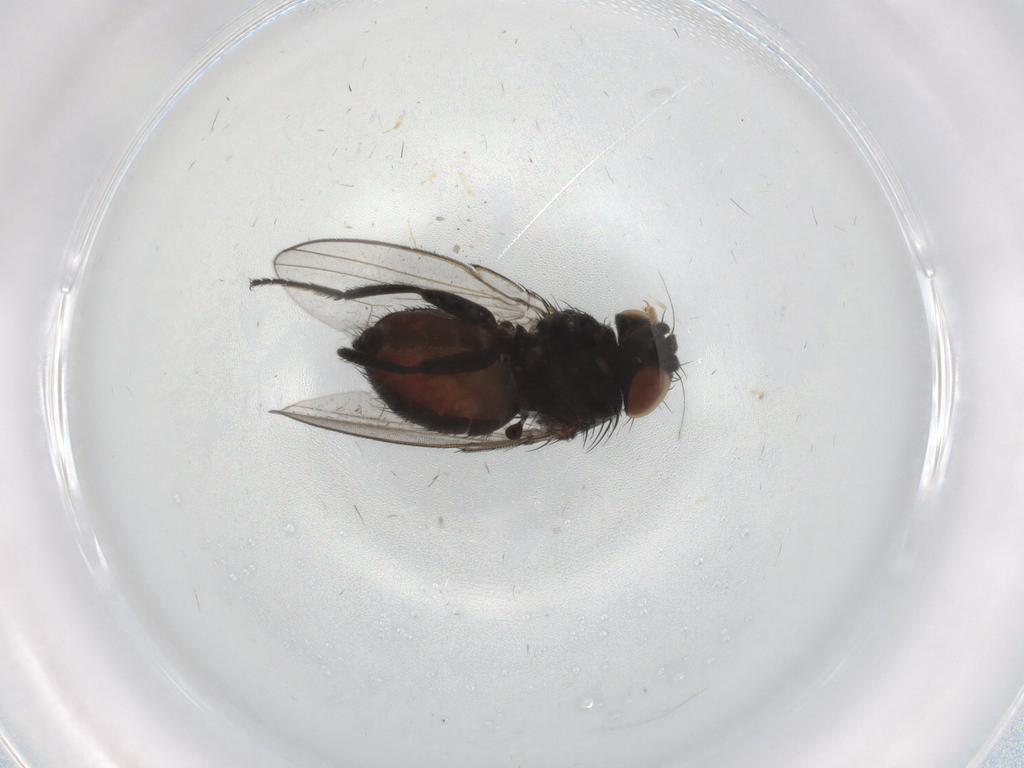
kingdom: Animalia
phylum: Arthropoda
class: Insecta
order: Diptera
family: Milichiidae
